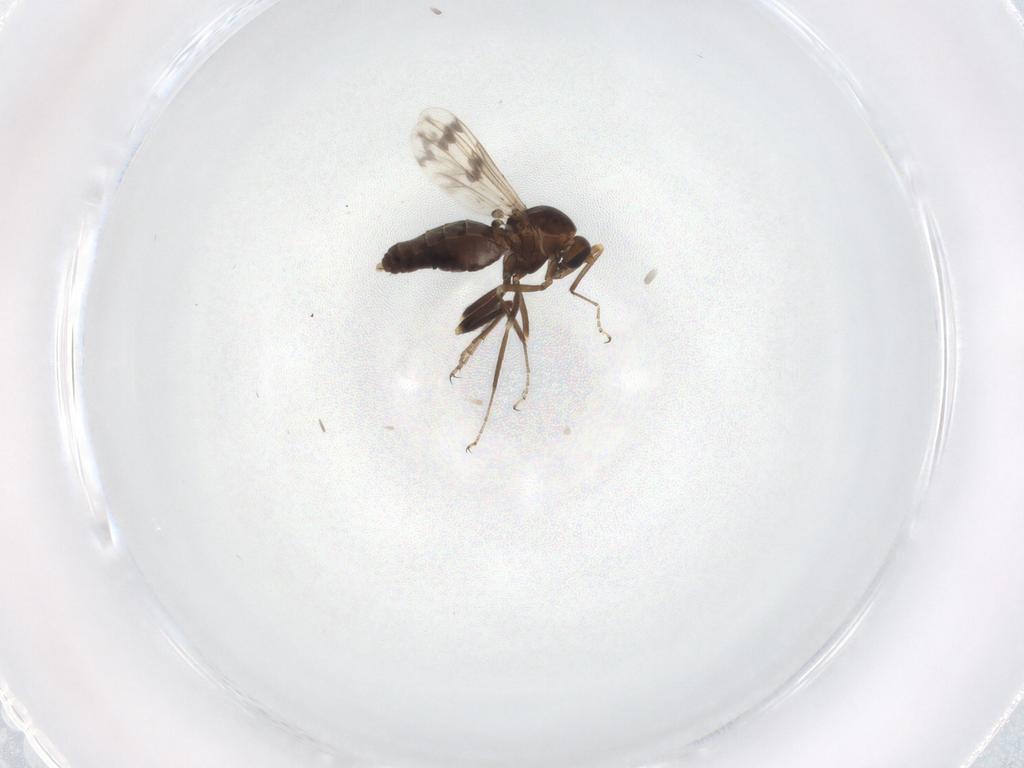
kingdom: Animalia
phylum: Arthropoda
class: Insecta
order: Diptera
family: Ceratopogonidae
